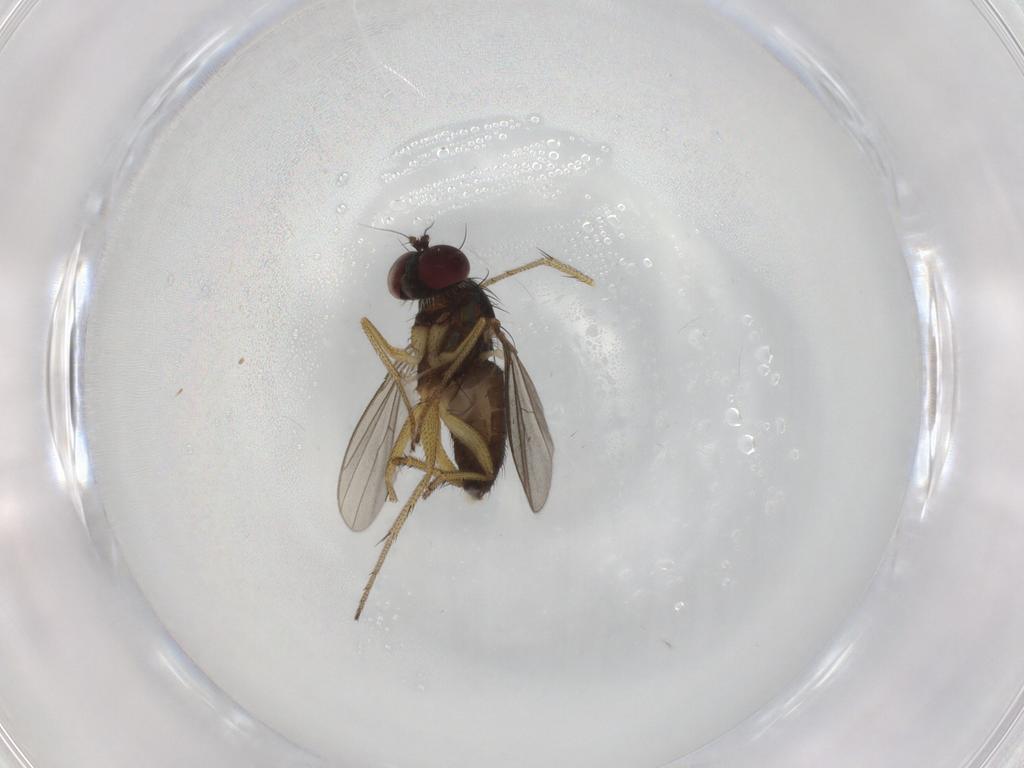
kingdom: Animalia
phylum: Arthropoda
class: Insecta
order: Diptera
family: Dolichopodidae
